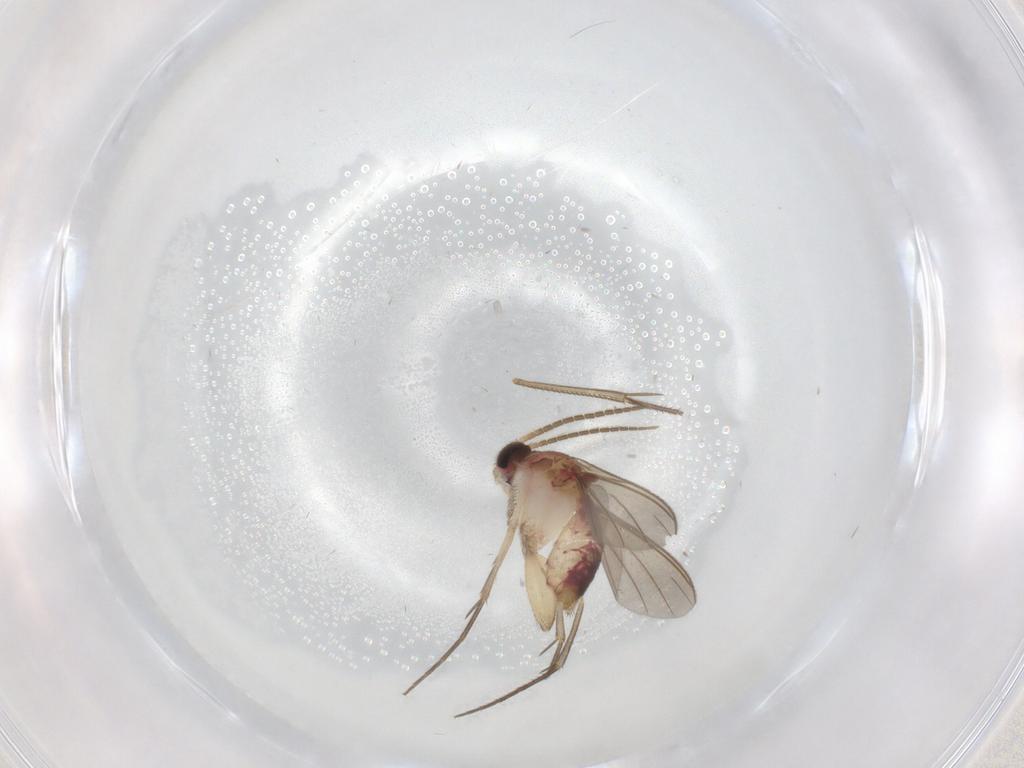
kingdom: Animalia
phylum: Arthropoda
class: Insecta
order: Diptera
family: Mycetophilidae
